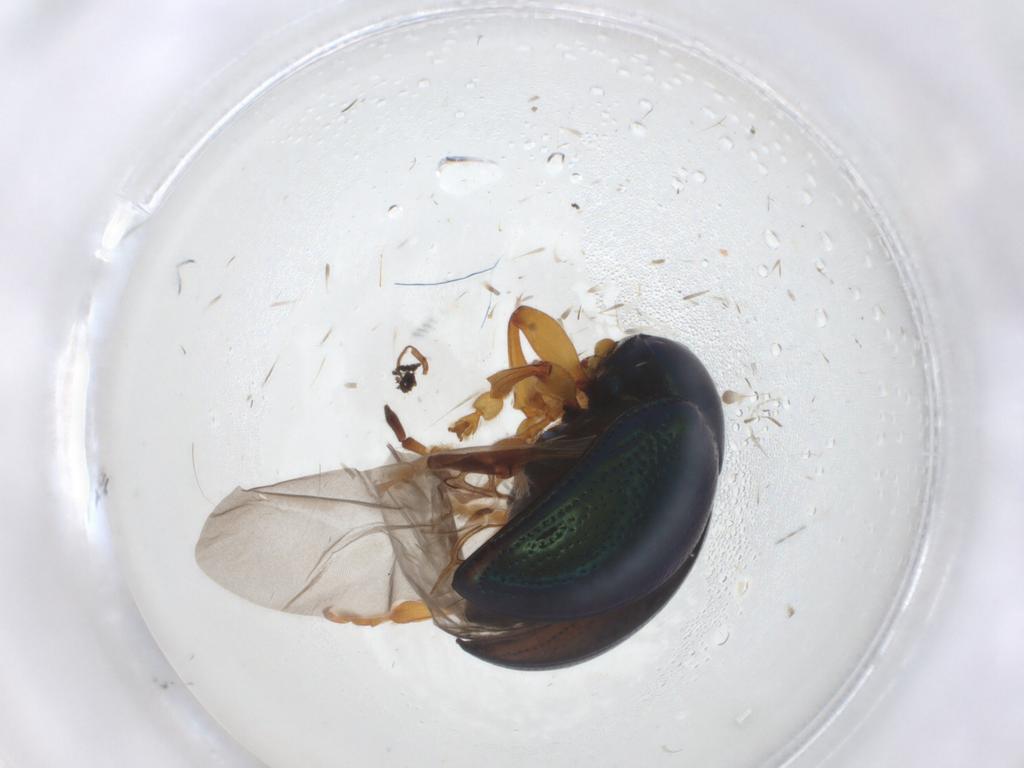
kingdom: Animalia
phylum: Arthropoda
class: Insecta
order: Coleoptera
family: Chrysomelidae
